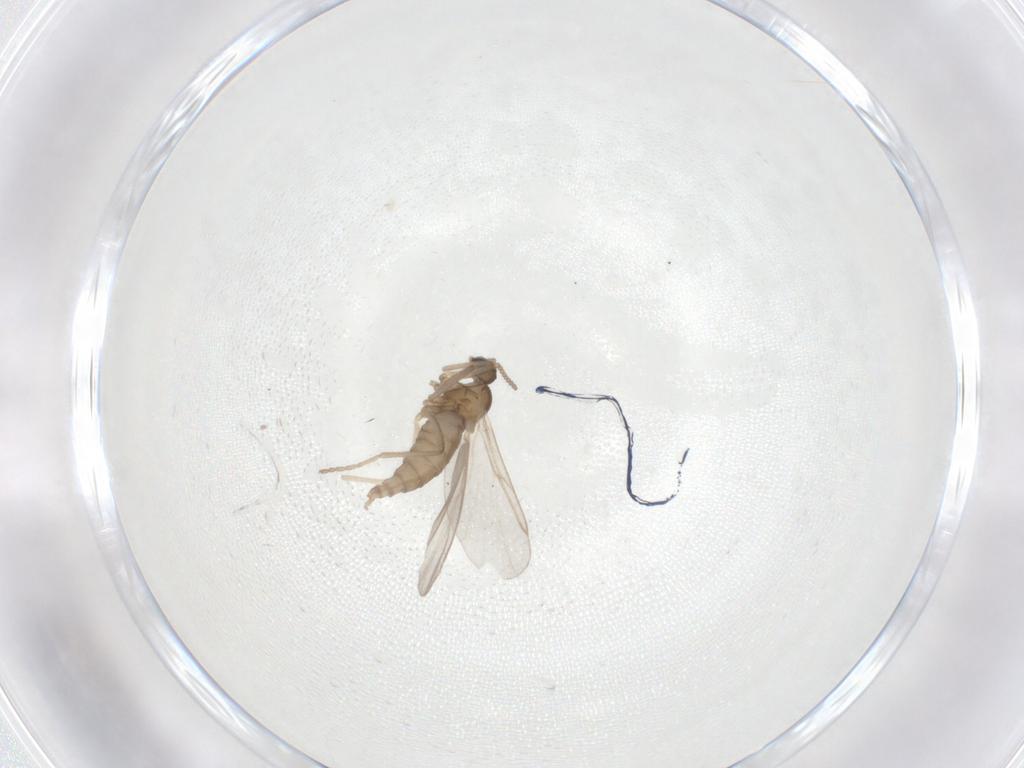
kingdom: Animalia
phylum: Arthropoda
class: Insecta
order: Diptera
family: Cecidomyiidae
